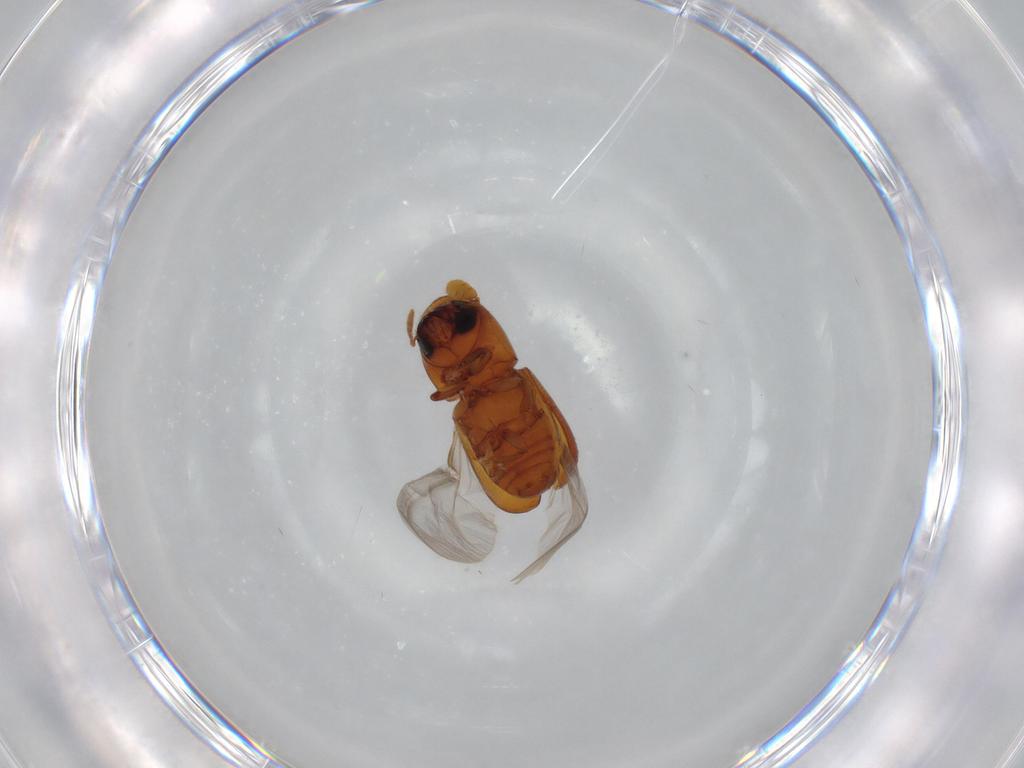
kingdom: Animalia
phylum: Arthropoda
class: Insecta
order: Coleoptera
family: Curculionidae
